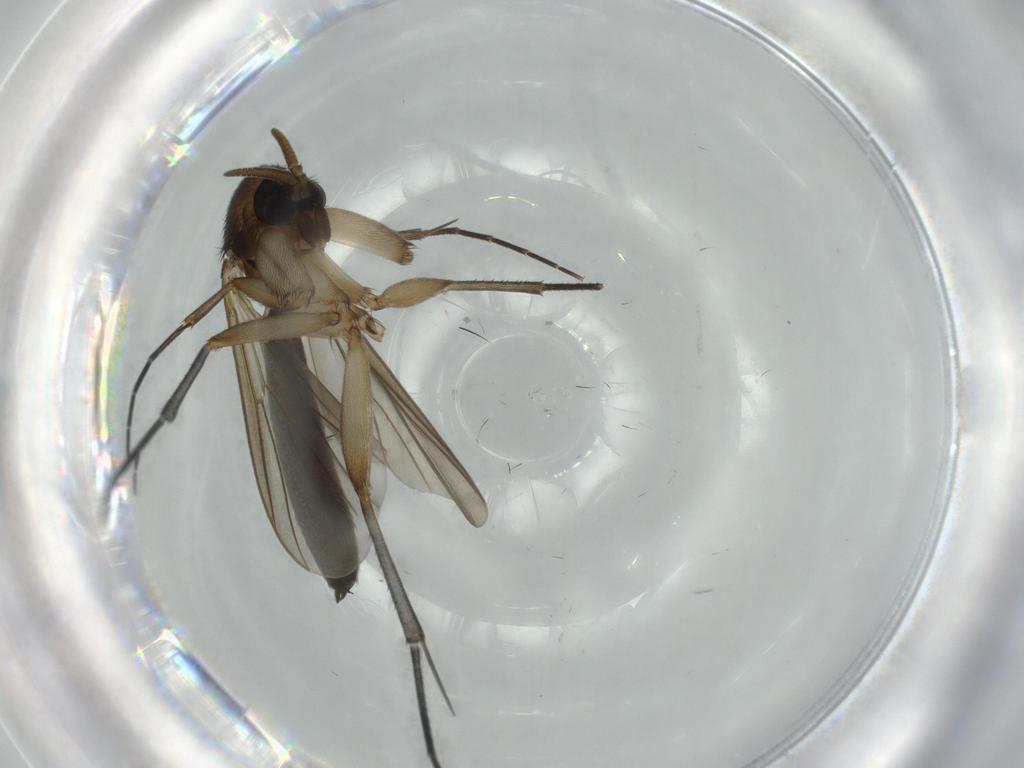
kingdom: Animalia
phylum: Arthropoda
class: Insecta
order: Diptera
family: Mycetophilidae
